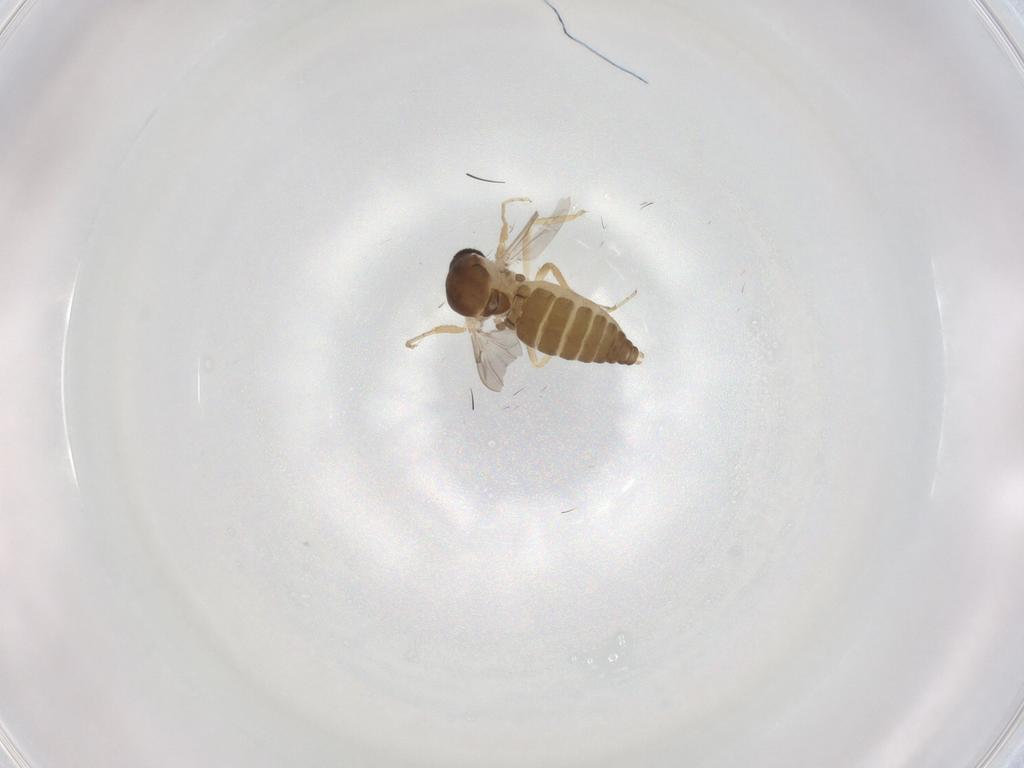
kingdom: Animalia
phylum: Arthropoda
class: Insecta
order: Diptera
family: Ceratopogonidae
